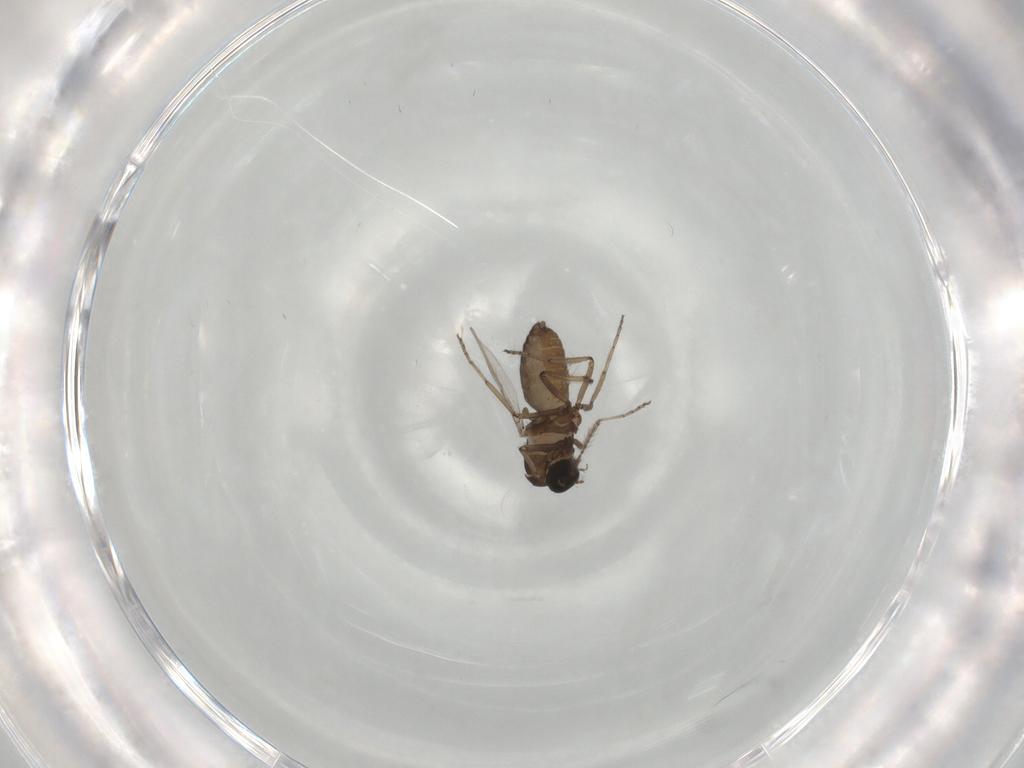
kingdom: Animalia
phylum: Arthropoda
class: Insecta
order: Diptera
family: Ceratopogonidae
